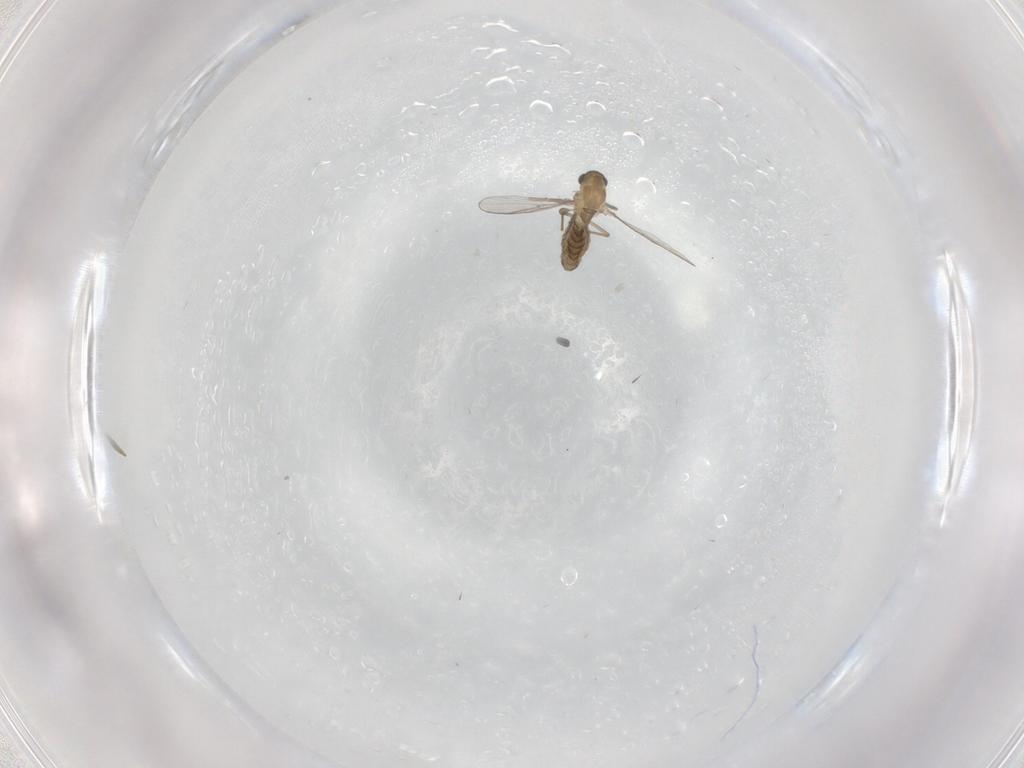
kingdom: Animalia
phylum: Arthropoda
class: Insecta
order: Diptera
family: Chironomidae
